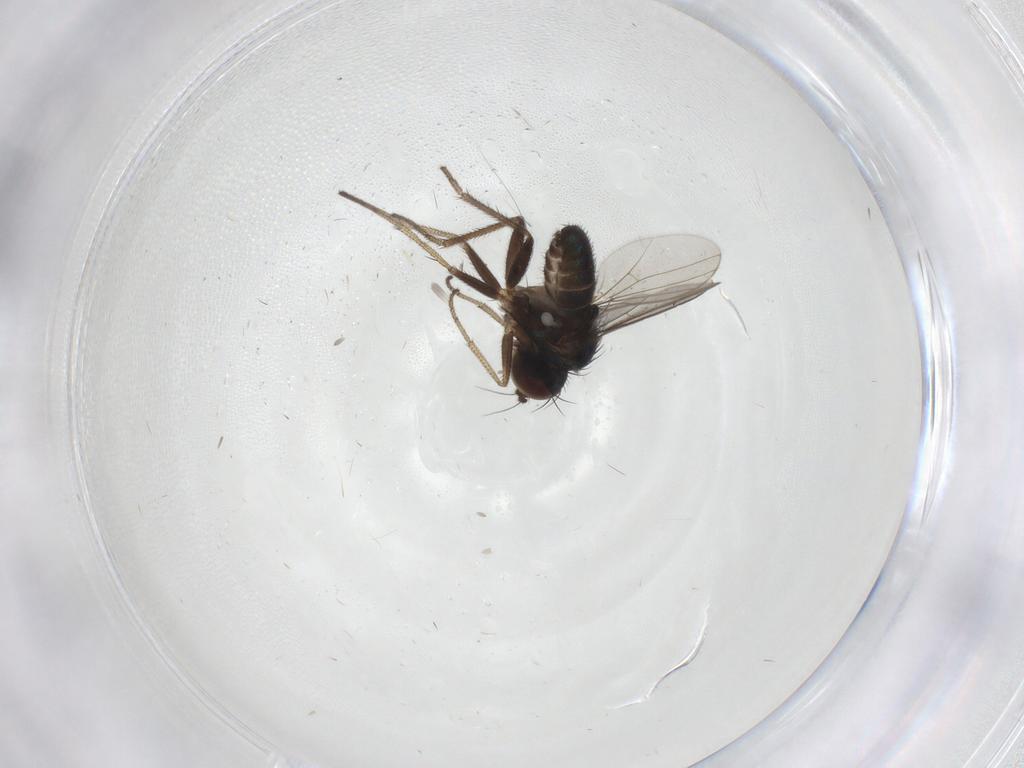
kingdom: Animalia
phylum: Arthropoda
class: Insecta
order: Diptera
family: Dolichopodidae
